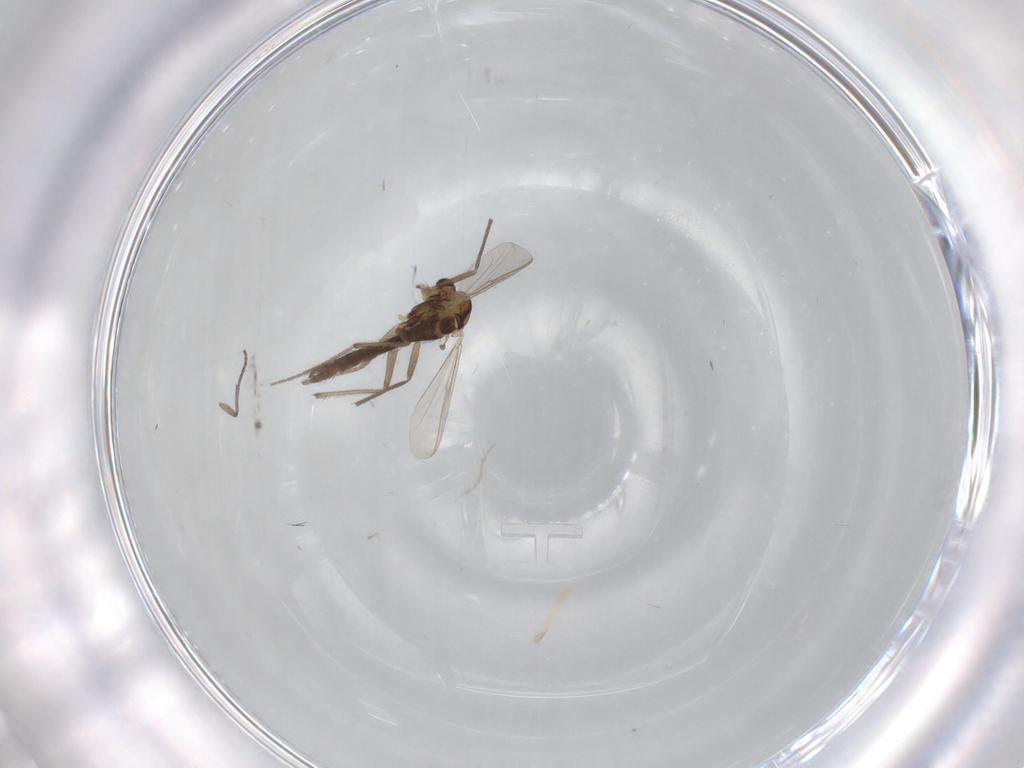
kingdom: Animalia
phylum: Arthropoda
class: Insecta
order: Diptera
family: Chironomidae
